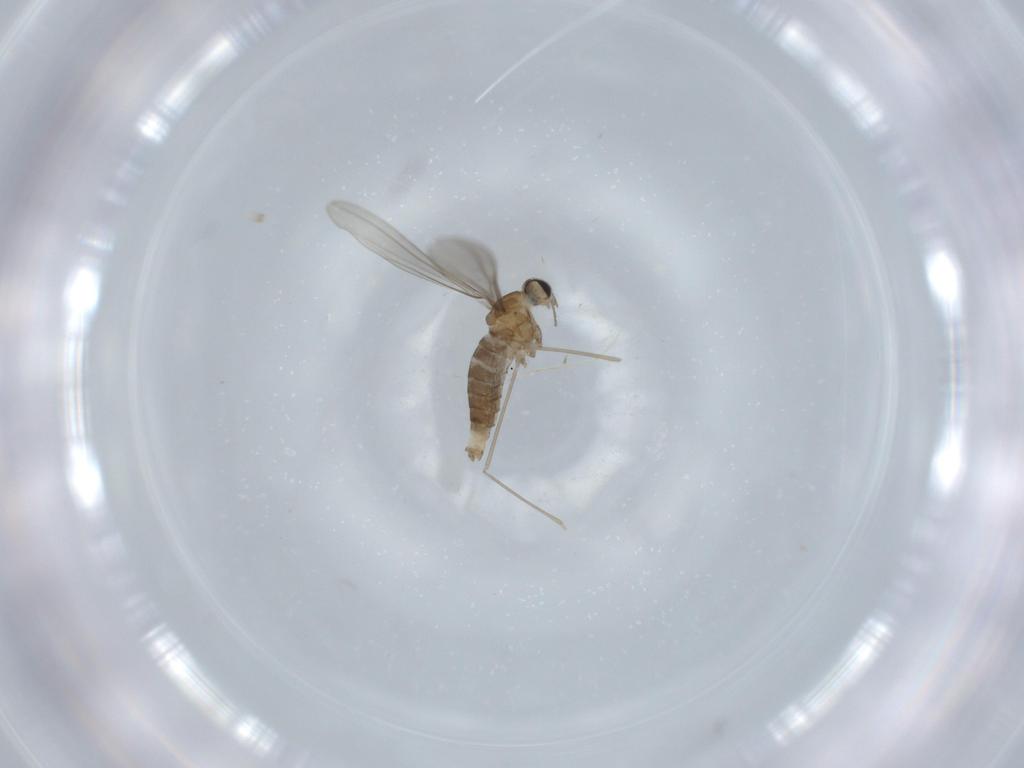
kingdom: Animalia
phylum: Arthropoda
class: Insecta
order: Diptera
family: Cecidomyiidae
